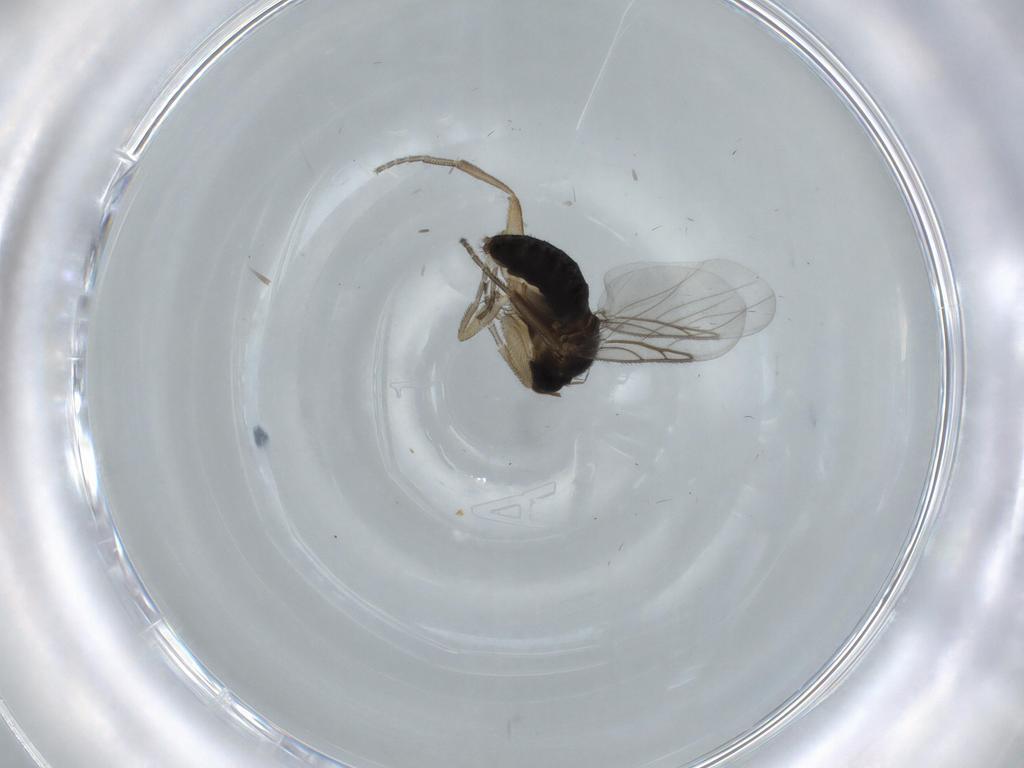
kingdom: Animalia
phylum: Arthropoda
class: Insecta
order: Diptera
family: Phoridae
